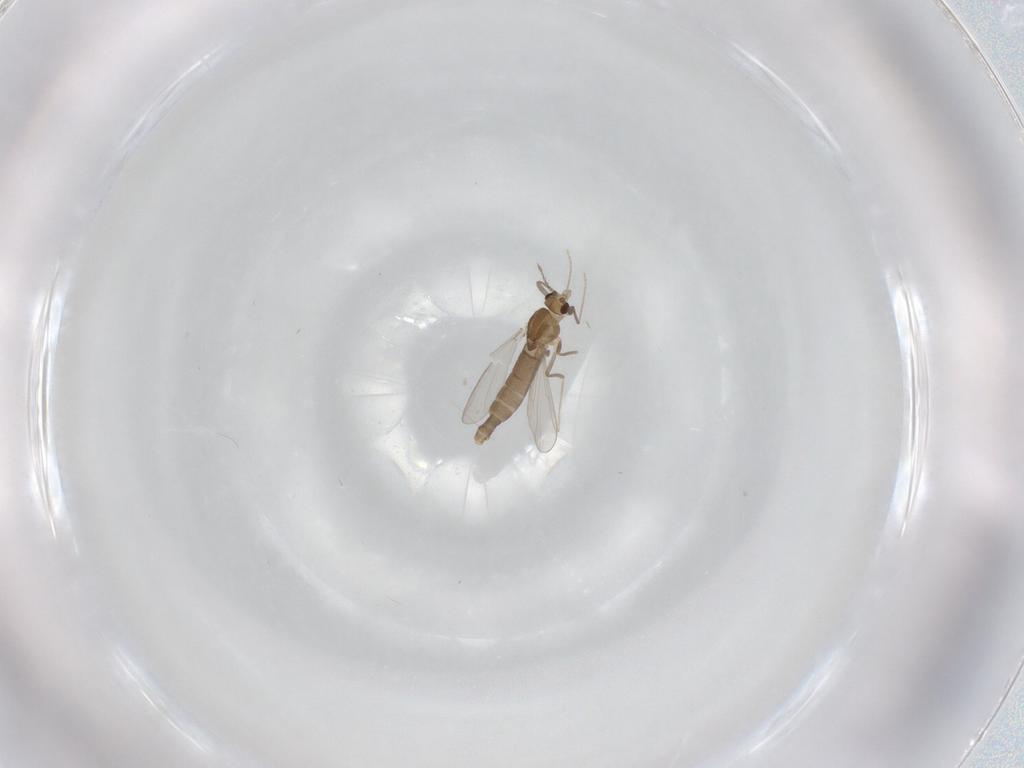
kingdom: Animalia
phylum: Arthropoda
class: Insecta
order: Diptera
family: Chironomidae
